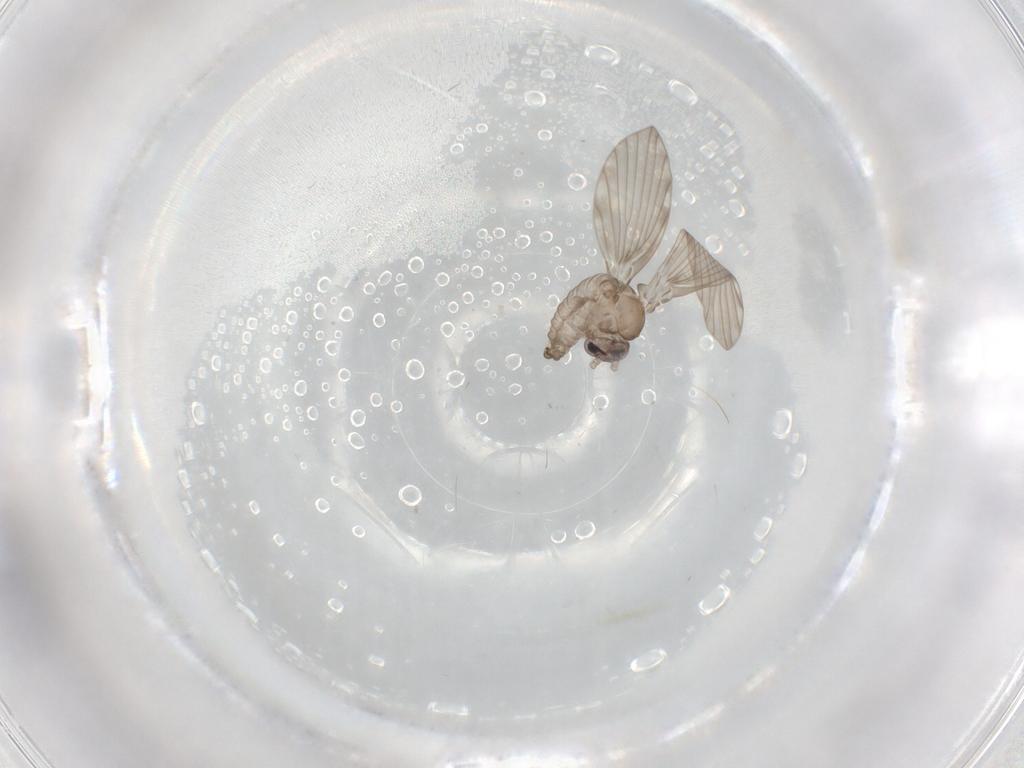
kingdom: Animalia
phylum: Arthropoda
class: Insecta
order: Diptera
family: Psychodidae
